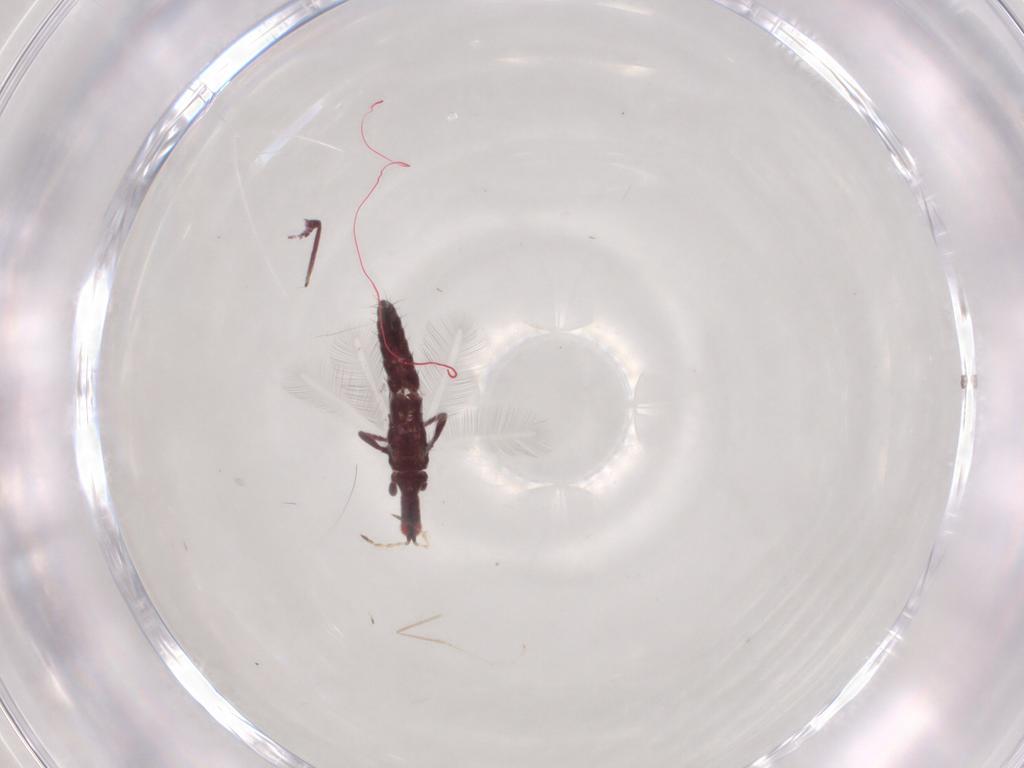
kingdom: Animalia
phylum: Arthropoda
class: Insecta
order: Thysanoptera
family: Phlaeothripidae
